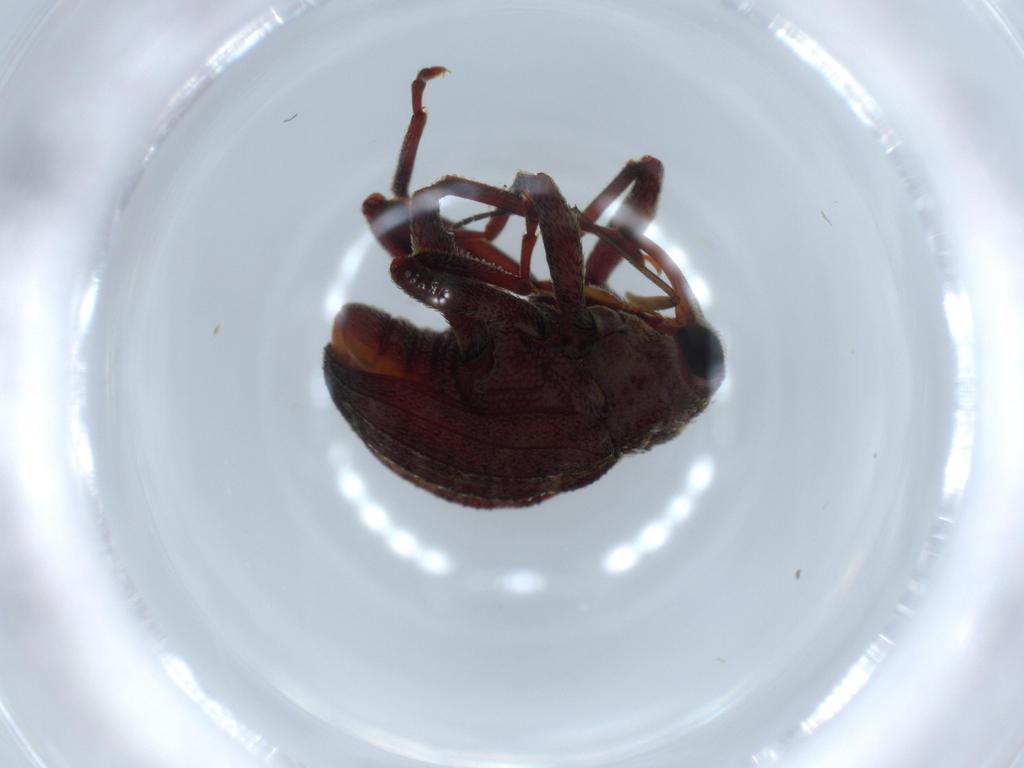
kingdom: Animalia
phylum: Arthropoda
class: Insecta
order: Coleoptera
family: Curculionidae
